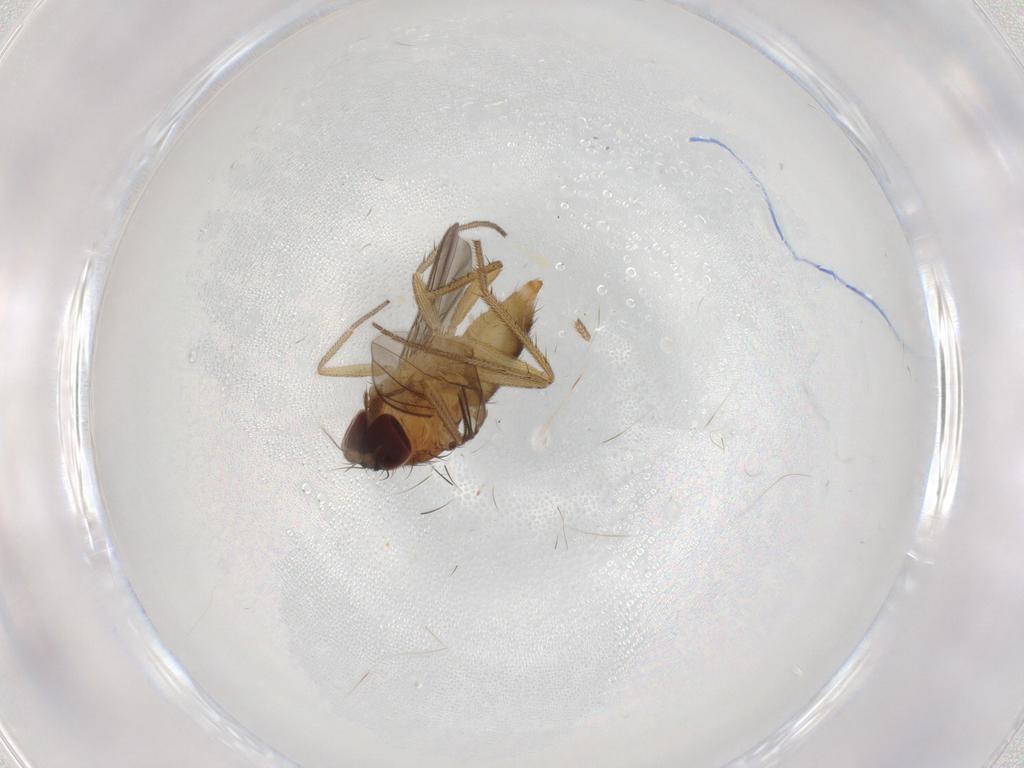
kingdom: Animalia
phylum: Arthropoda
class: Insecta
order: Diptera
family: Dolichopodidae
